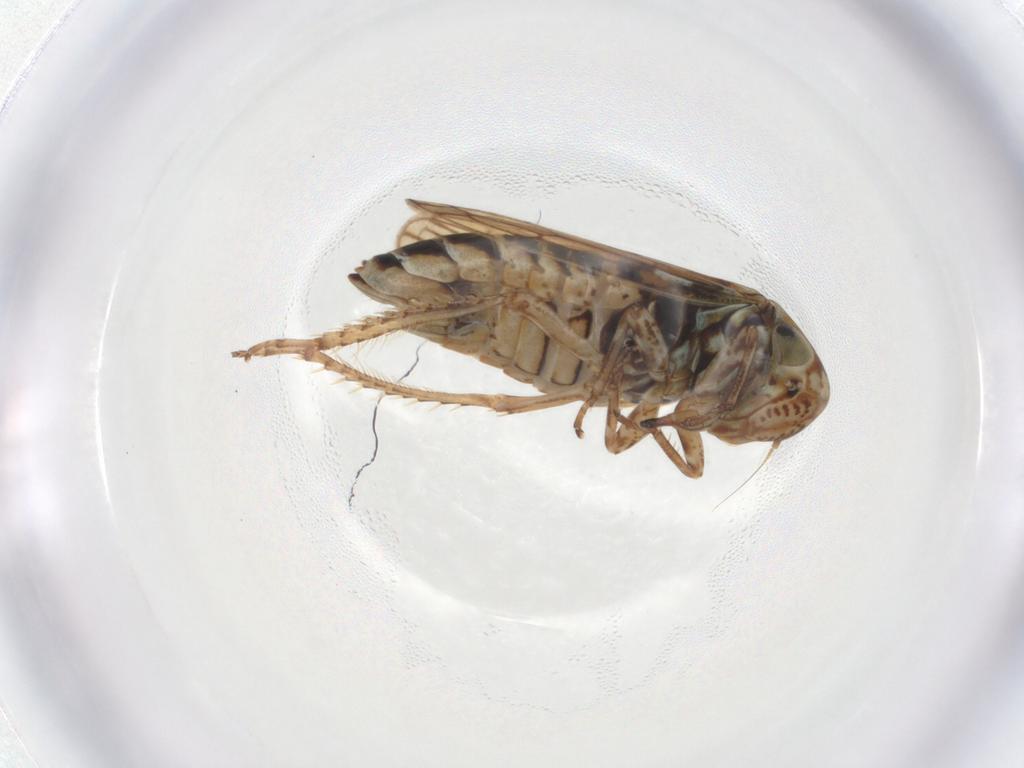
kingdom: Animalia
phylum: Arthropoda
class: Insecta
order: Hemiptera
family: Cicadellidae
